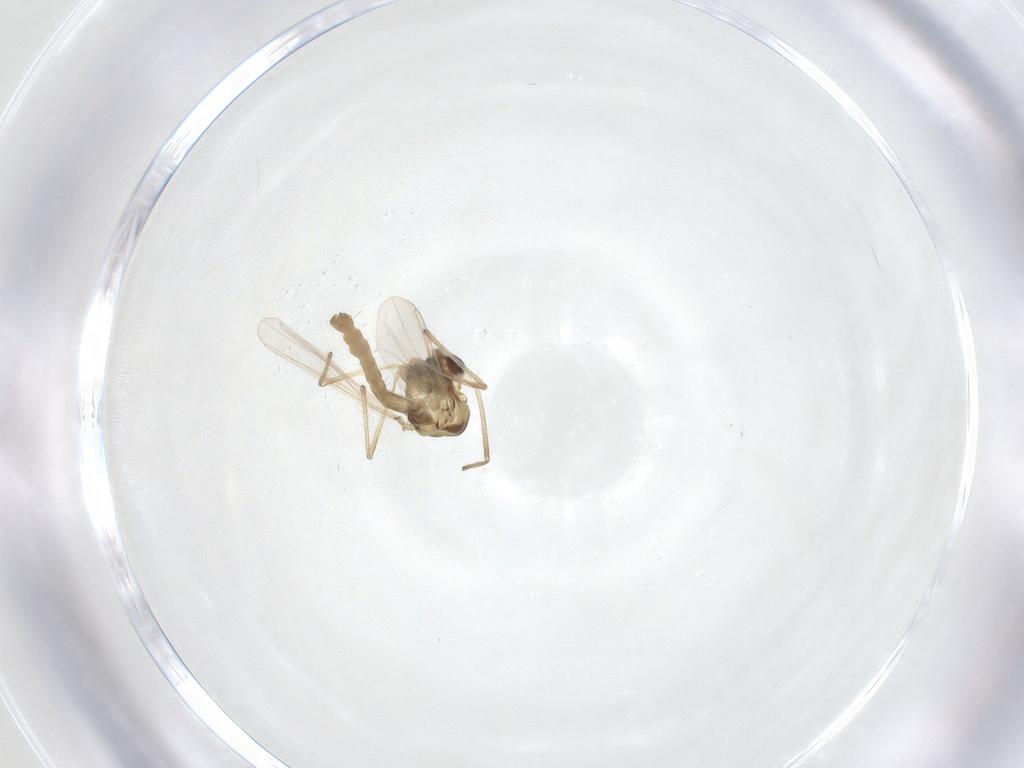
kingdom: Animalia
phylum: Arthropoda
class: Insecta
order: Diptera
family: Chironomidae
